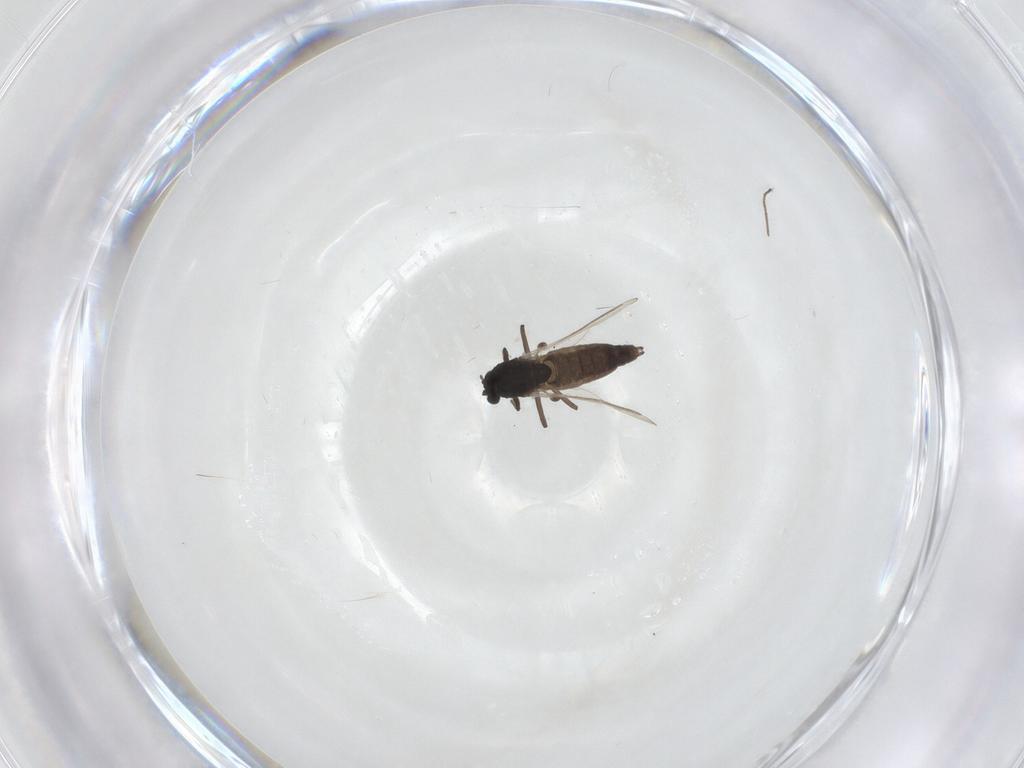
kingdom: Animalia
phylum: Arthropoda
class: Insecta
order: Diptera
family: Chironomidae
